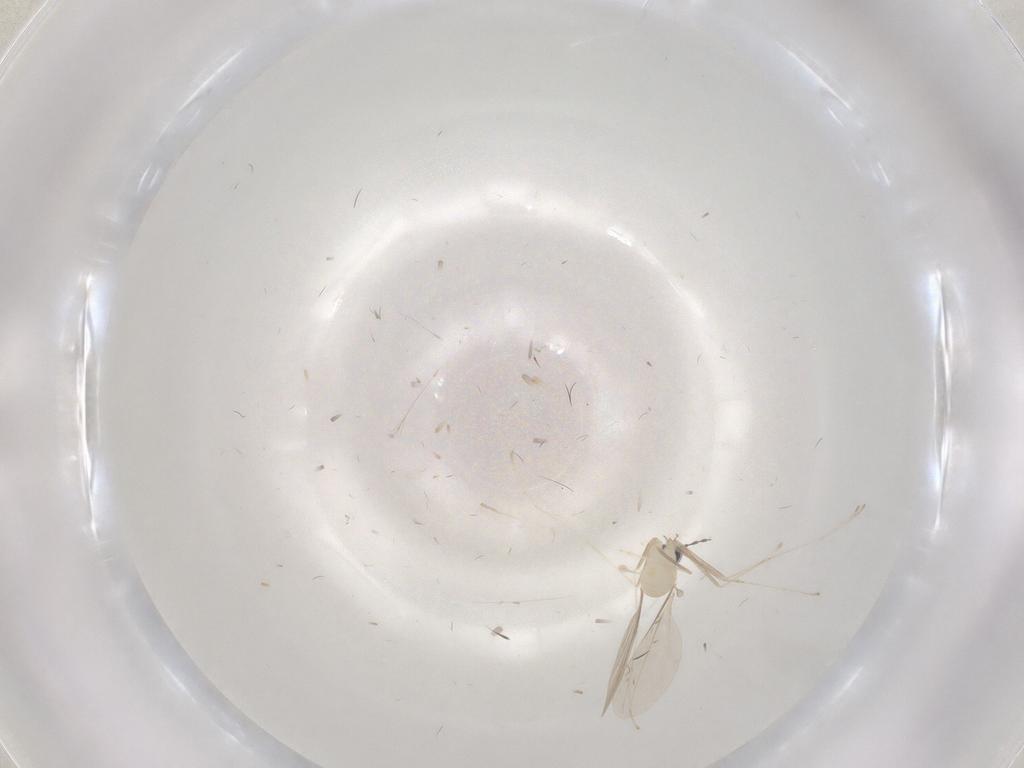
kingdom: Animalia
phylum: Arthropoda
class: Insecta
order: Diptera
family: Cecidomyiidae
